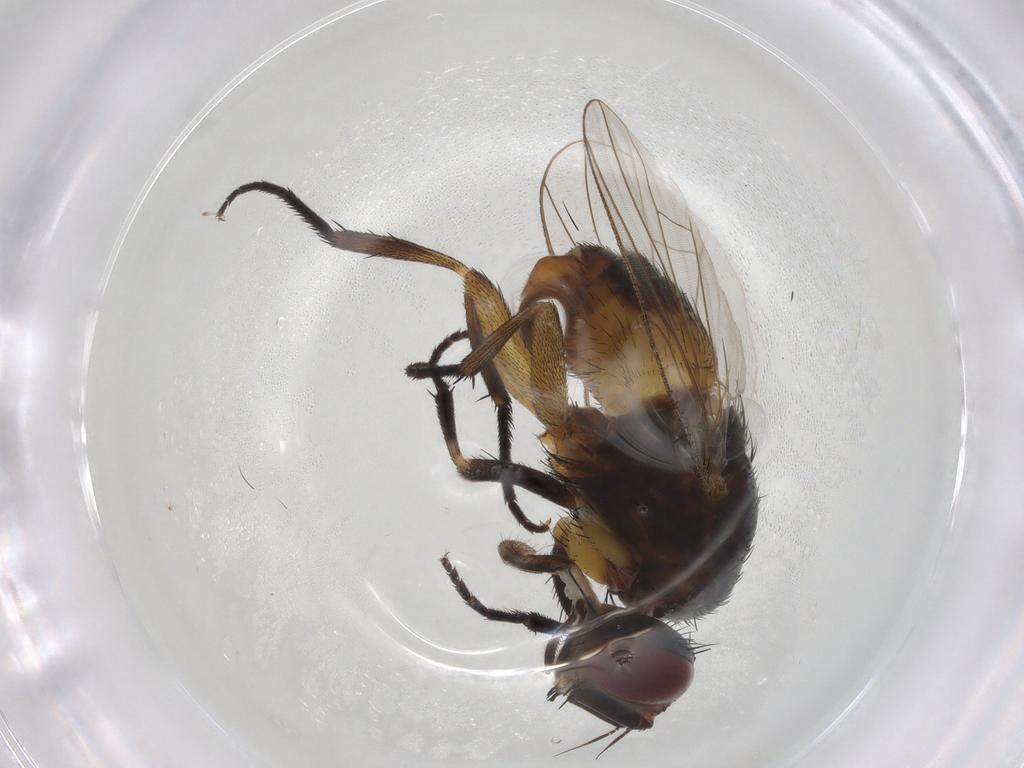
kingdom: Animalia
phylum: Arthropoda
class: Insecta
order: Diptera
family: Muscidae
